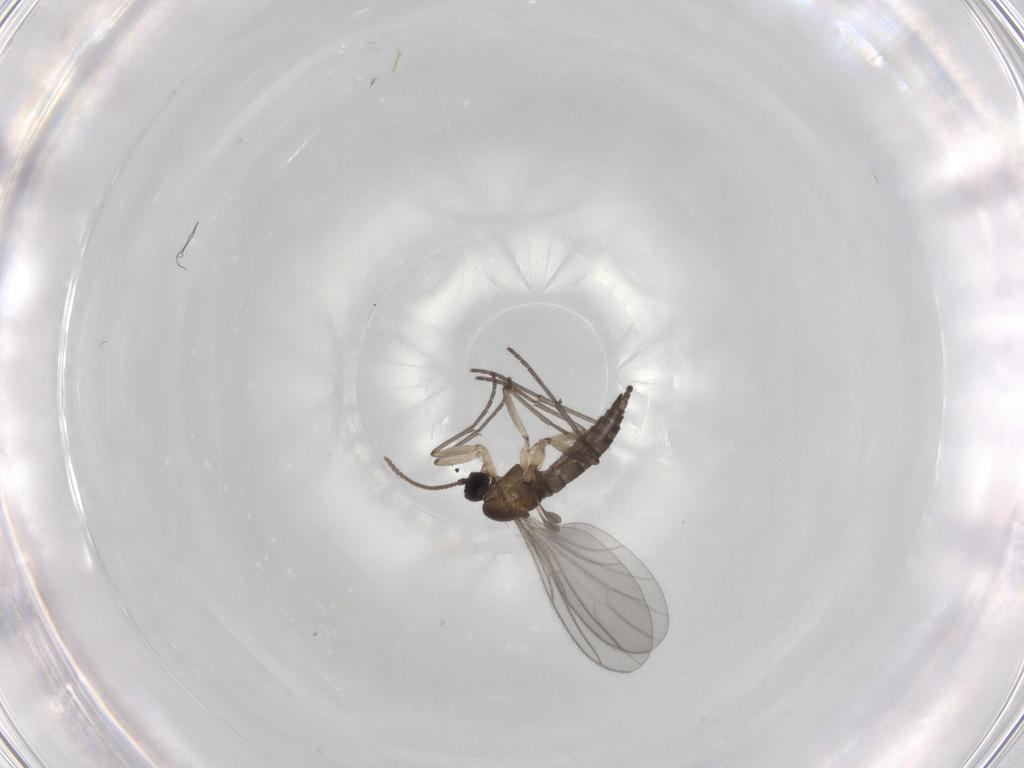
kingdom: Animalia
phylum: Arthropoda
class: Insecta
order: Diptera
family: Sciaridae
